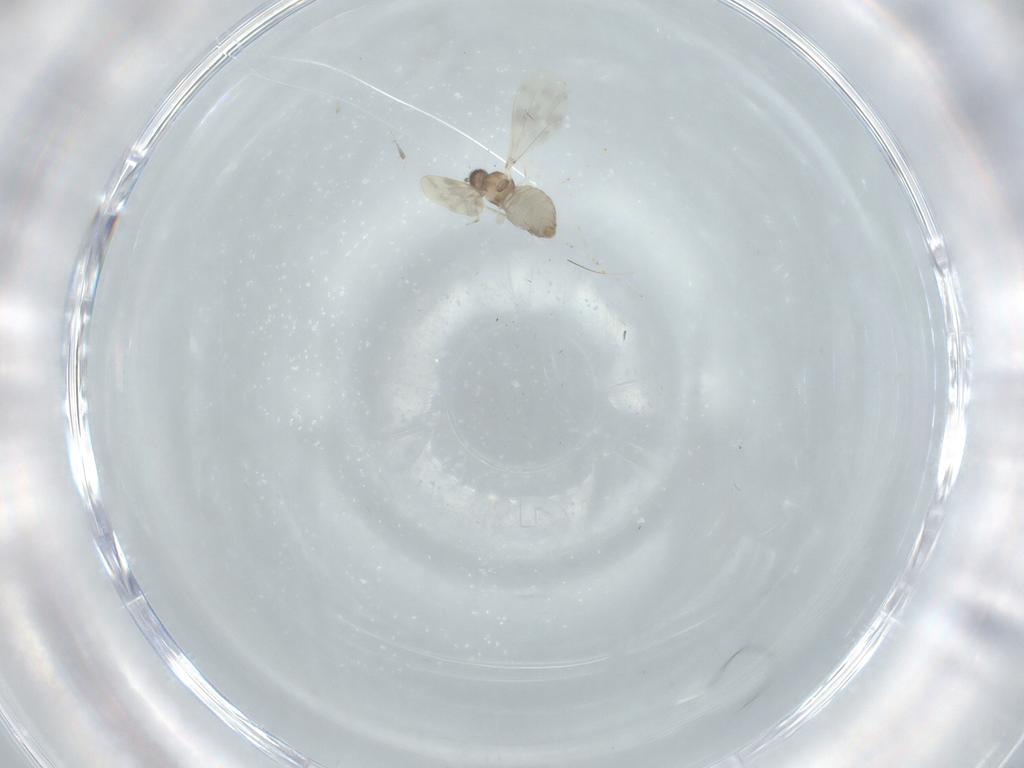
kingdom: Animalia
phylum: Arthropoda
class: Insecta
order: Diptera
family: Cecidomyiidae
